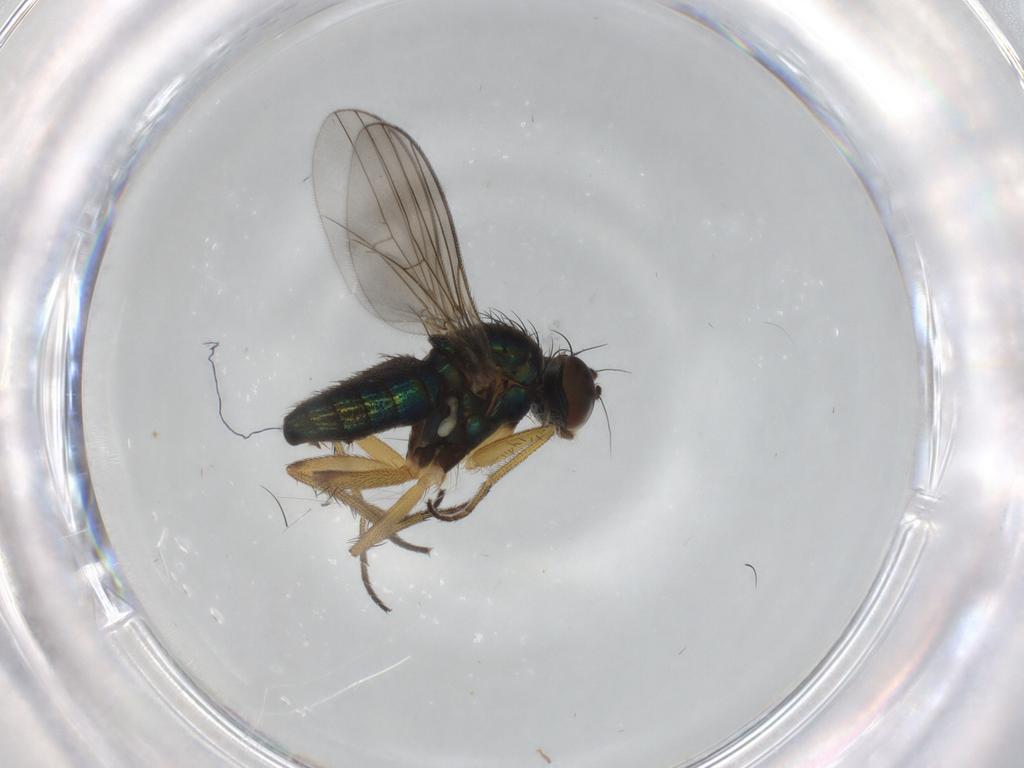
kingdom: Animalia
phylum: Arthropoda
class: Insecta
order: Diptera
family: Dolichopodidae
